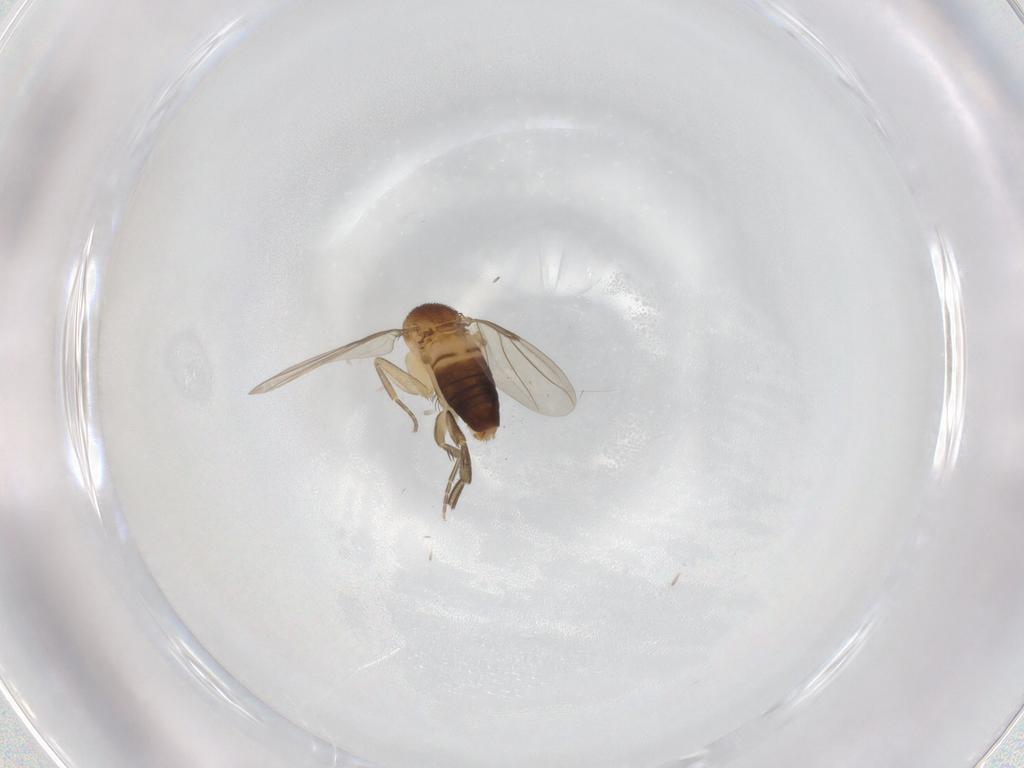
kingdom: Animalia
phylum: Arthropoda
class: Insecta
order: Diptera
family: Phoridae
